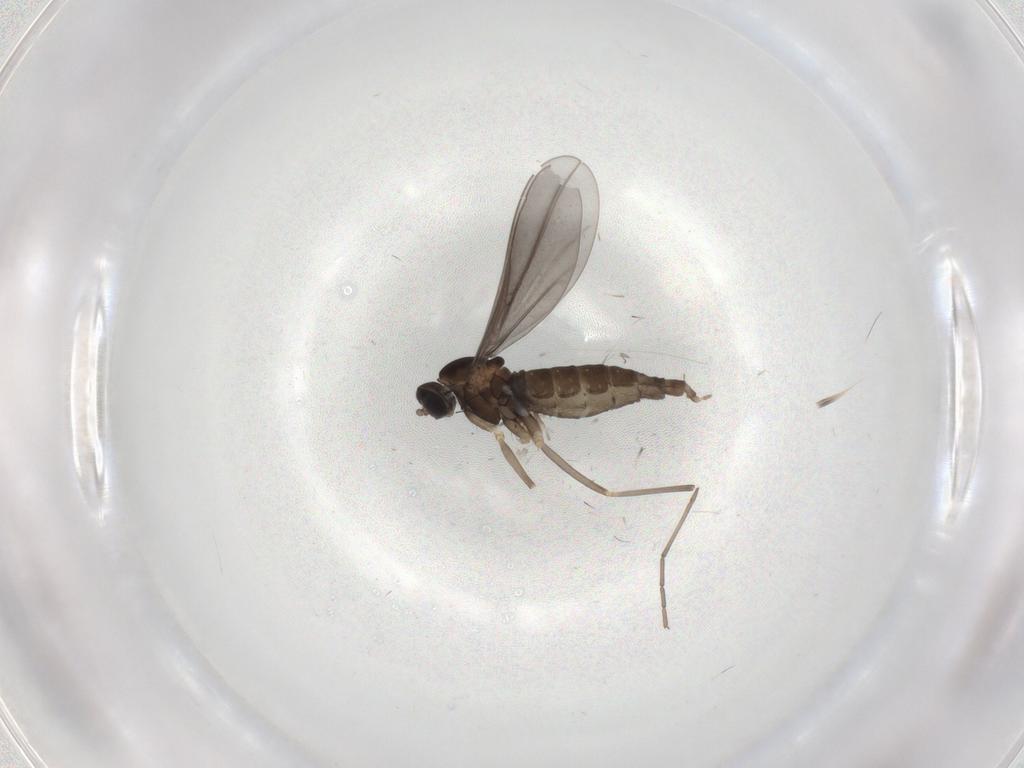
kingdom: Animalia
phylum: Arthropoda
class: Insecta
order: Diptera
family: Cecidomyiidae
